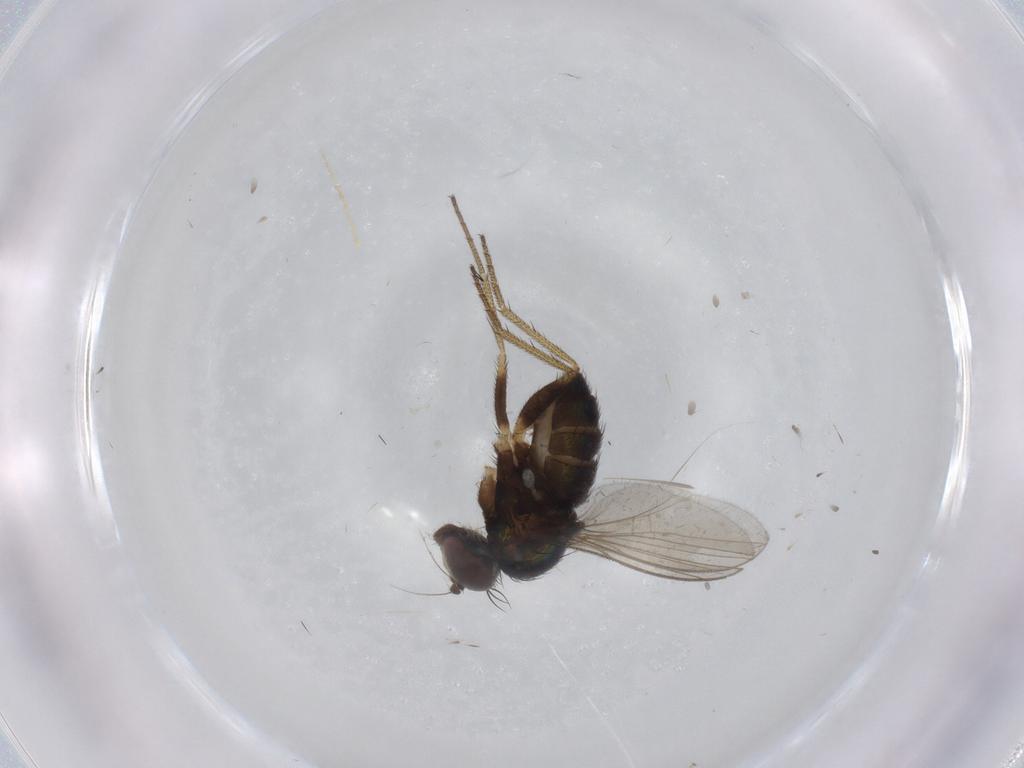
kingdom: Animalia
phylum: Arthropoda
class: Insecta
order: Diptera
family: Dolichopodidae
